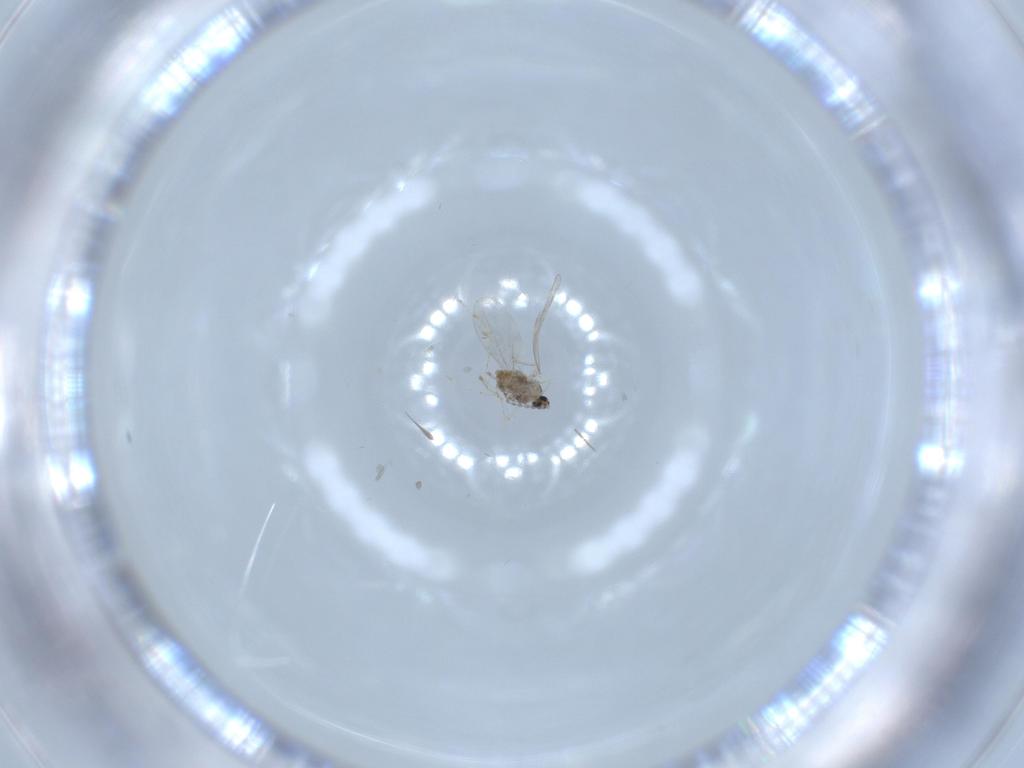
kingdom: Animalia
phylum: Arthropoda
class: Insecta
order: Diptera
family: Cecidomyiidae
